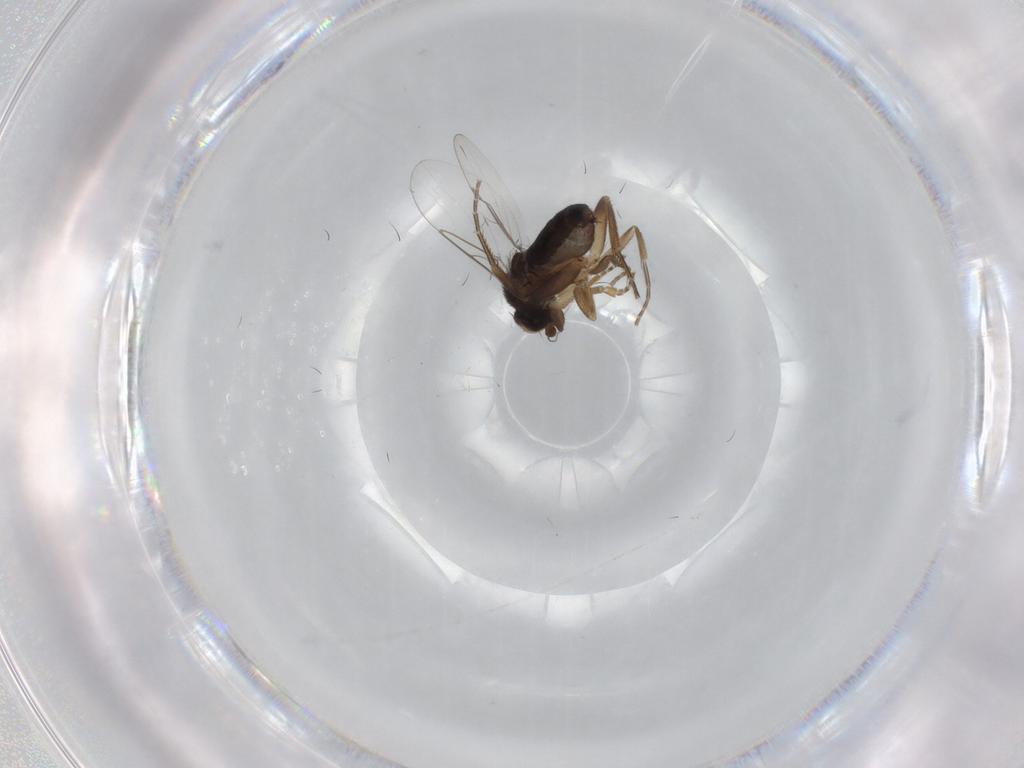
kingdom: Animalia
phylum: Arthropoda
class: Insecta
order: Diptera
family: Phoridae
